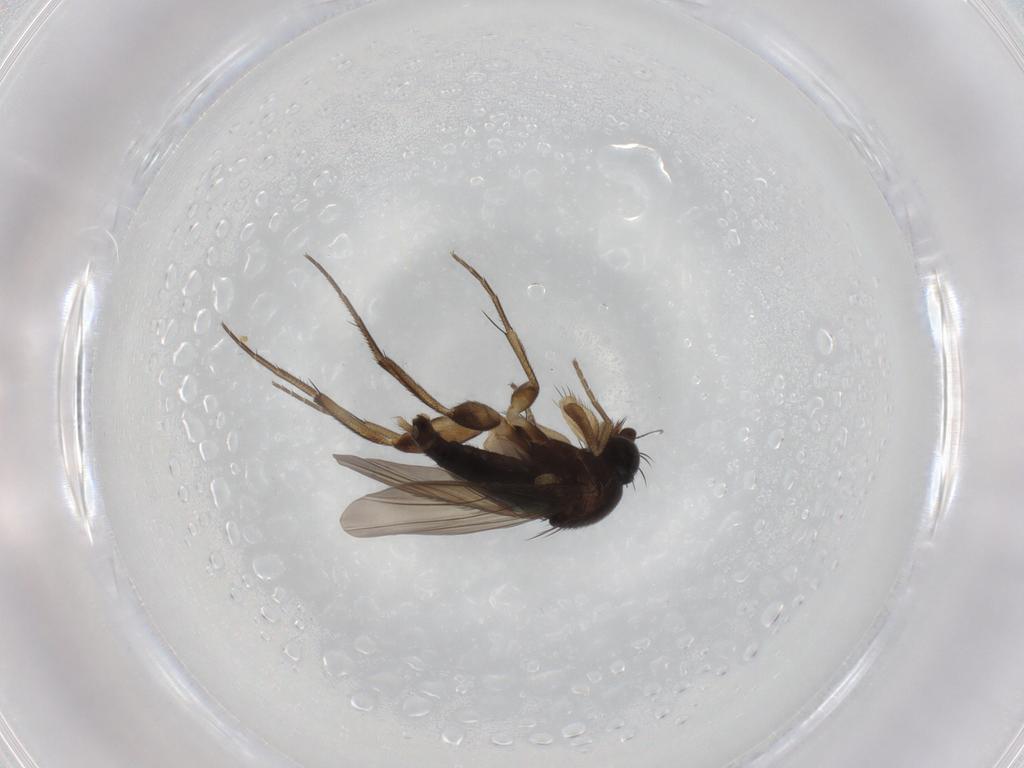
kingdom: Animalia
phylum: Arthropoda
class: Insecta
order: Diptera
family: Phoridae
